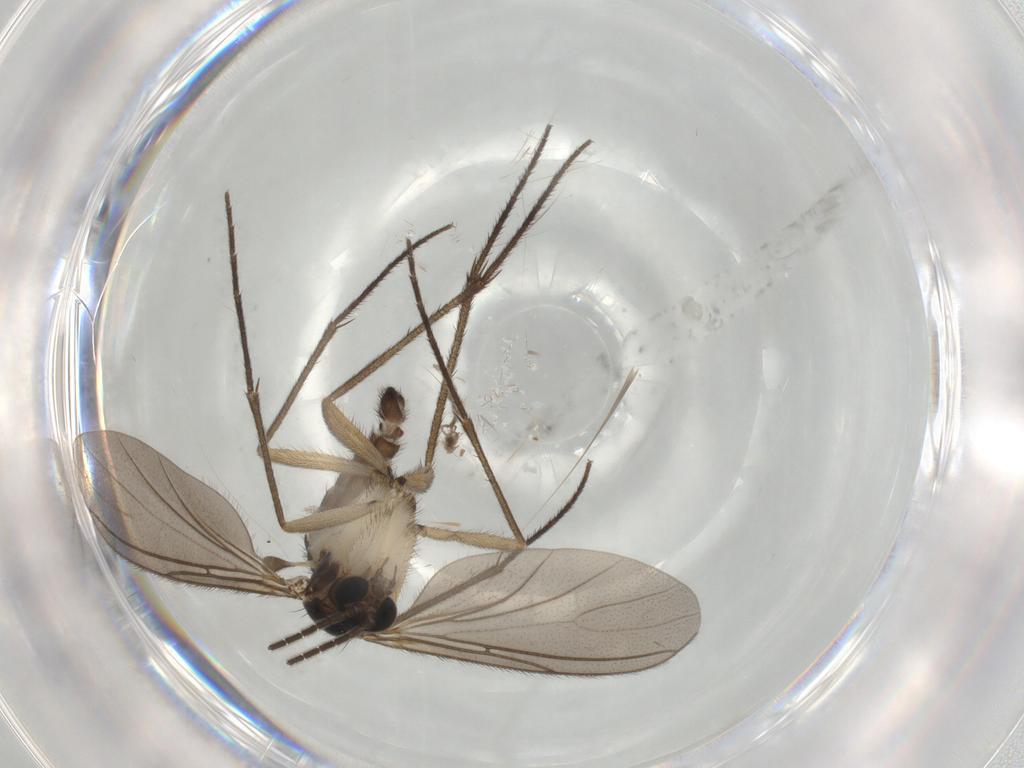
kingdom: Animalia
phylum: Arthropoda
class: Insecta
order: Diptera
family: Sciaridae
